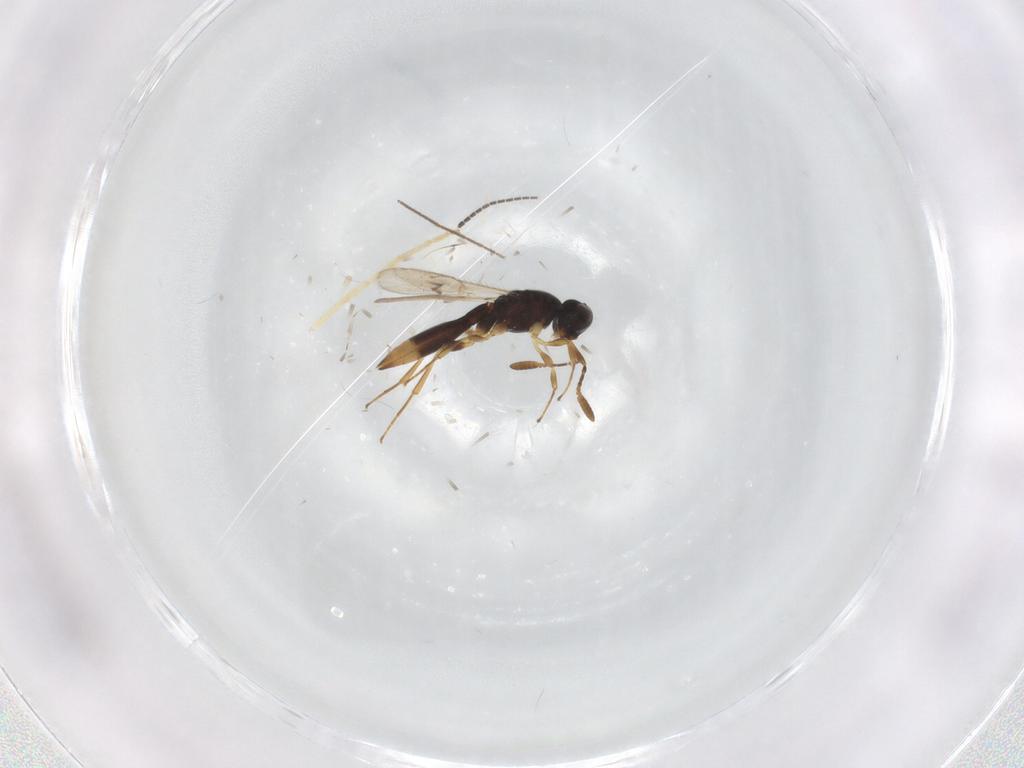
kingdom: Animalia
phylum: Arthropoda
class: Insecta
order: Hymenoptera
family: Scelionidae
